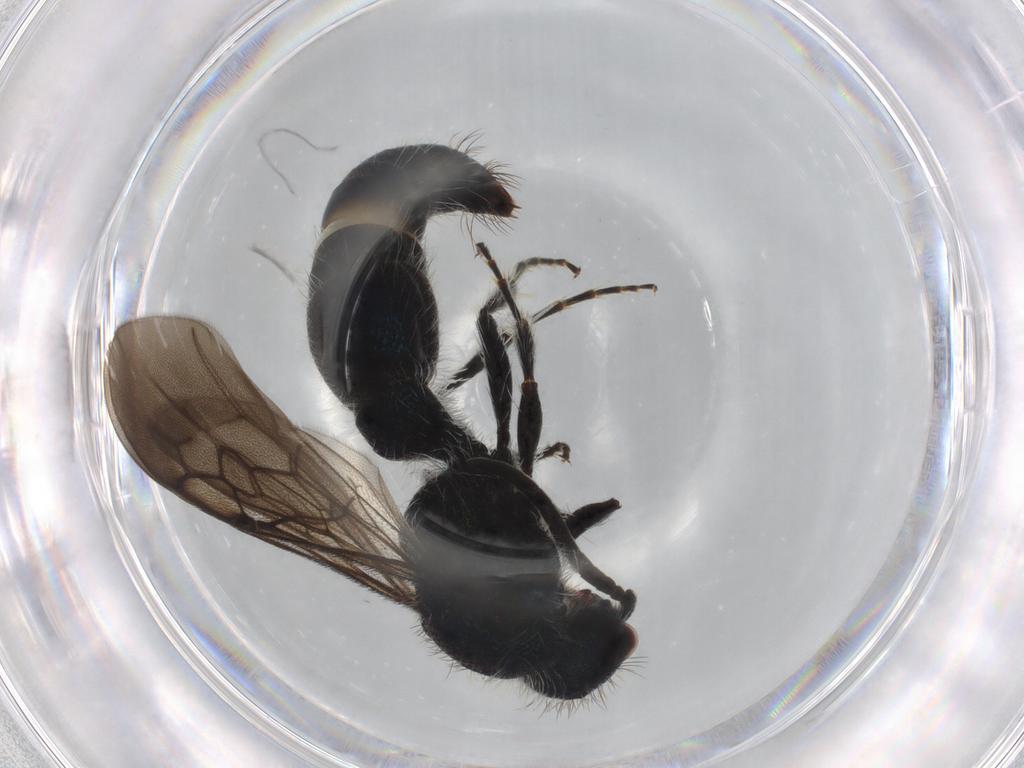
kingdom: Animalia
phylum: Arthropoda
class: Insecta
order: Hymenoptera
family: Mutillidae
